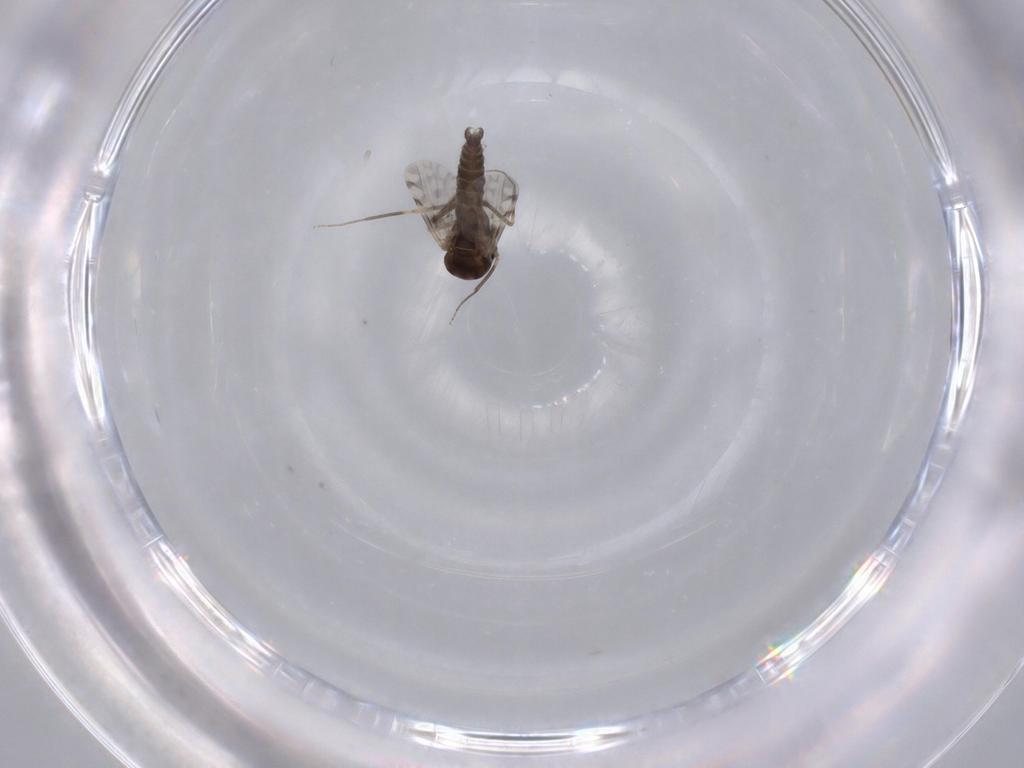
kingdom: Animalia
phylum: Arthropoda
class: Insecta
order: Diptera
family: Ceratopogonidae
